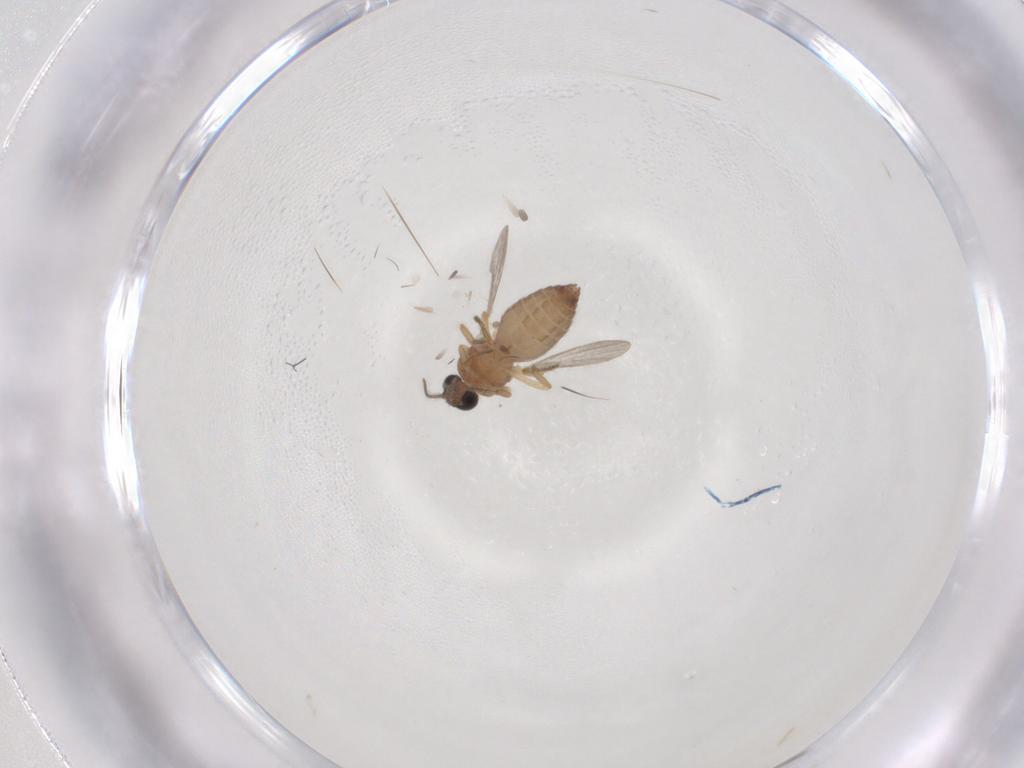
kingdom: Animalia
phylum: Arthropoda
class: Insecta
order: Diptera
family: Ceratopogonidae
